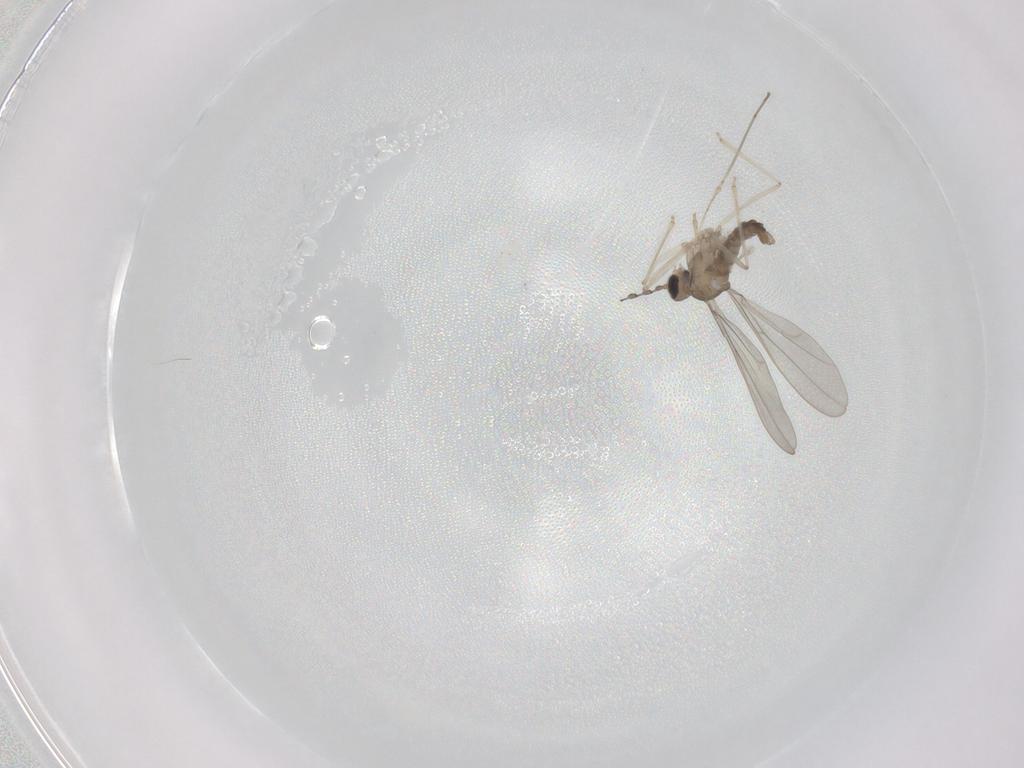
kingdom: Animalia
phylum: Arthropoda
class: Insecta
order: Diptera
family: Cecidomyiidae
